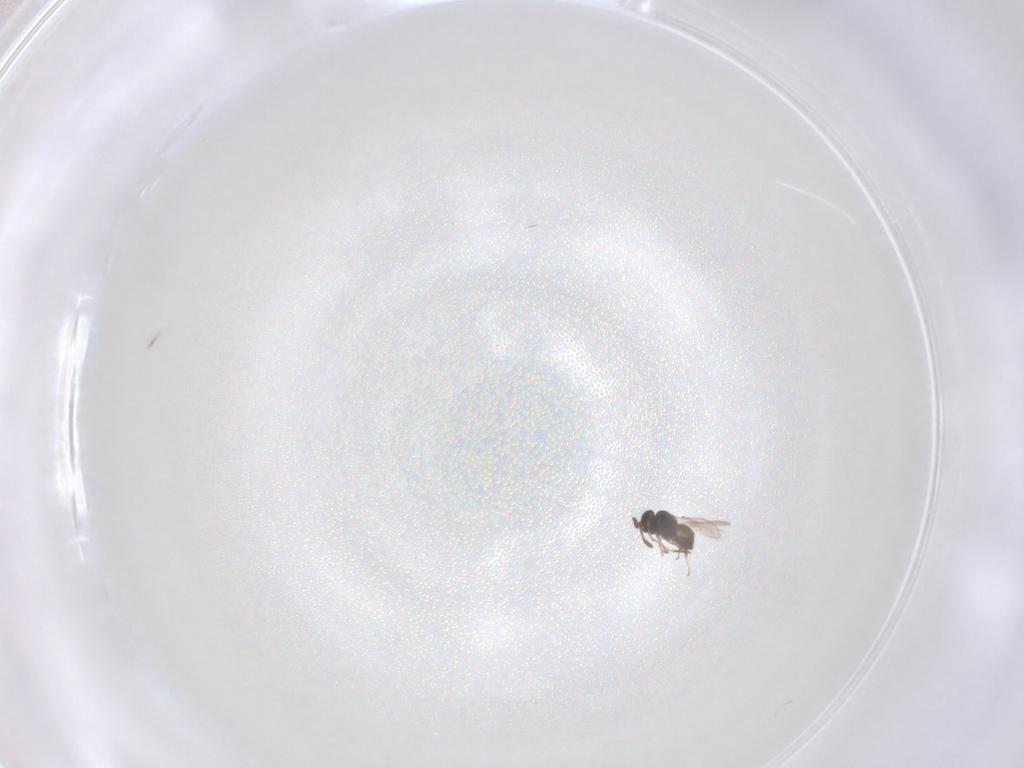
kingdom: Animalia
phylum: Arthropoda
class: Insecta
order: Hymenoptera
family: Scelionidae
